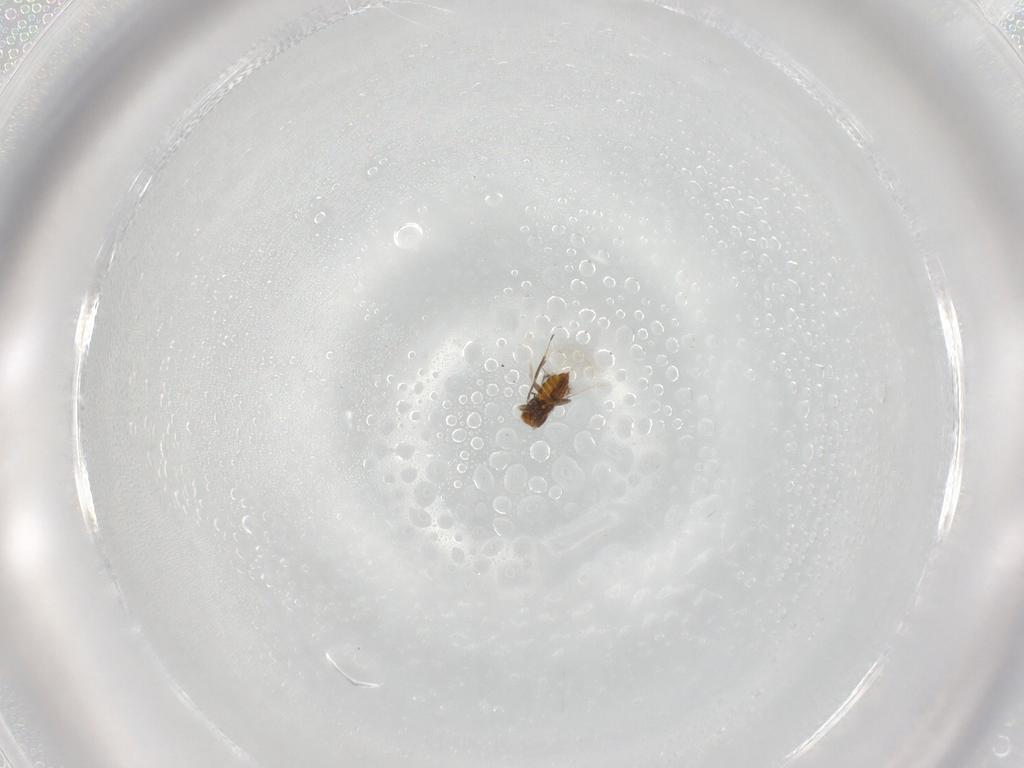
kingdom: Animalia
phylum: Arthropoda
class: Insecta
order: Hymenoptera
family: Trichogrammatidae
